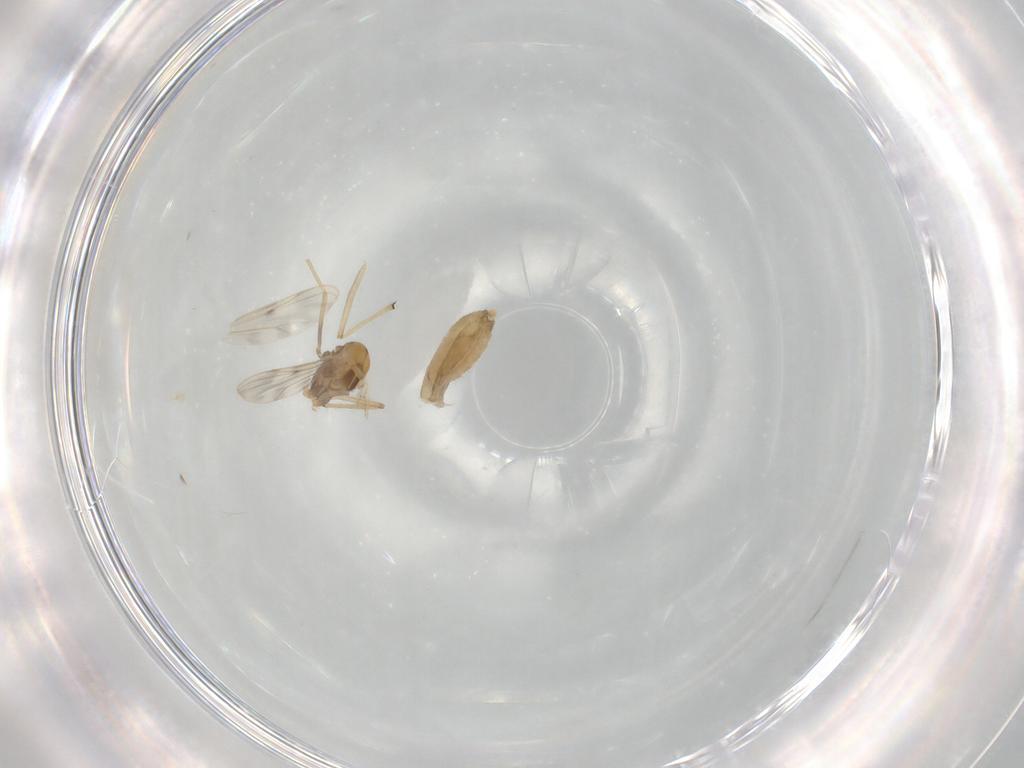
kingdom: Animalia
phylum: Arthropoda
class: Insecta
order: Diptera
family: Chironomidae
